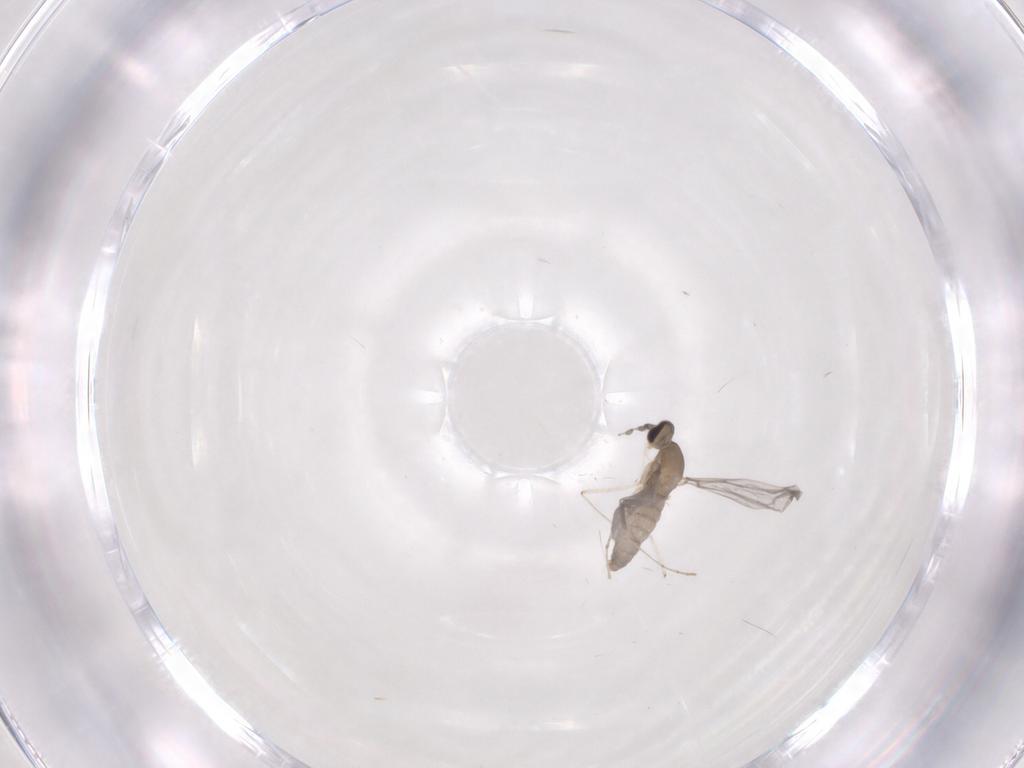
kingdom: Animalia
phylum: Arthropoda
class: Insecta
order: Diptera
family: Cecidomyiidae
